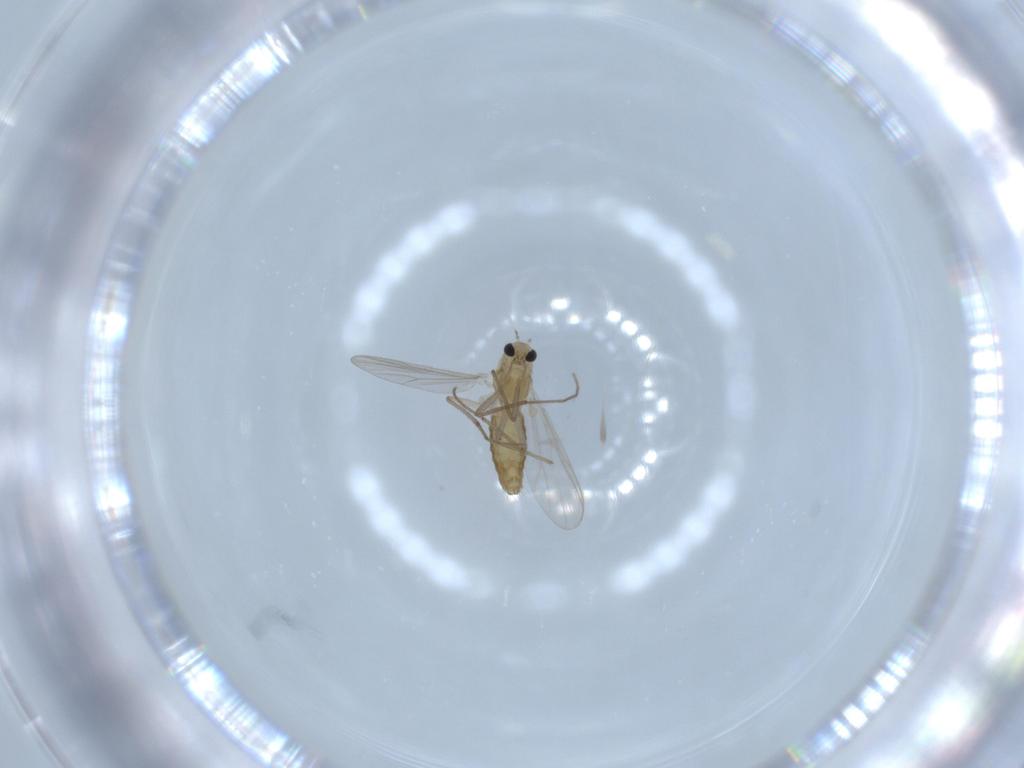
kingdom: Animalia
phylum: Arthropoda
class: Insecta
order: Diptera
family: Chironomidae
